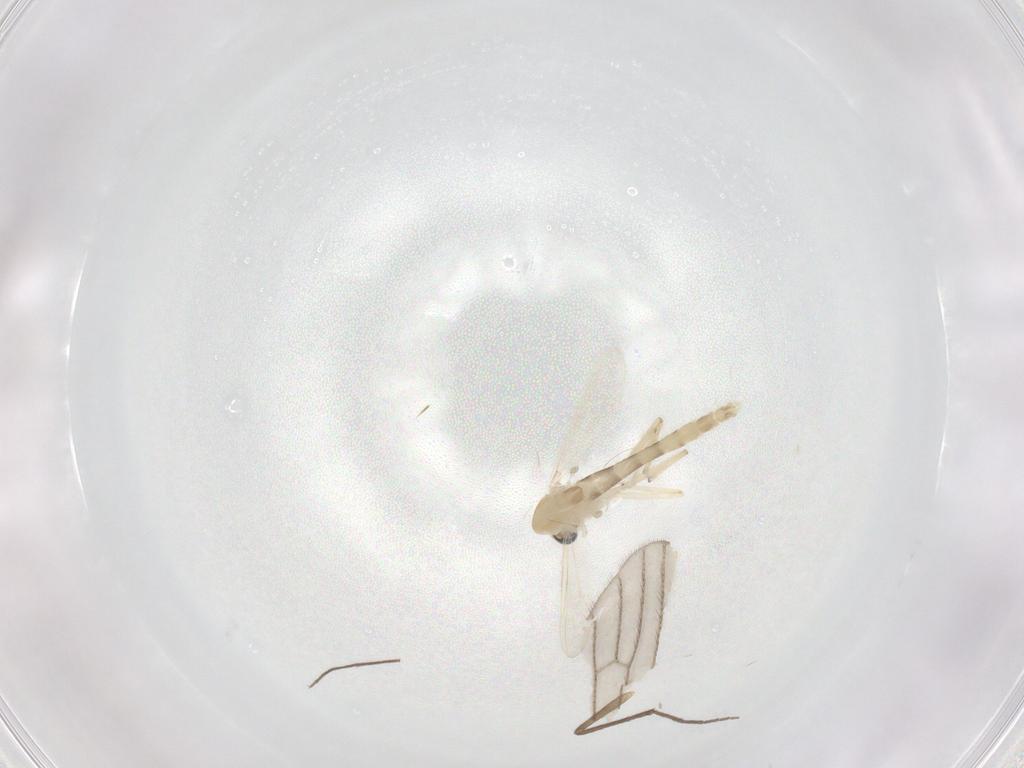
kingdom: Animalia
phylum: Arthropoda
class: Insecta
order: Diptera
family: Chironomidae
